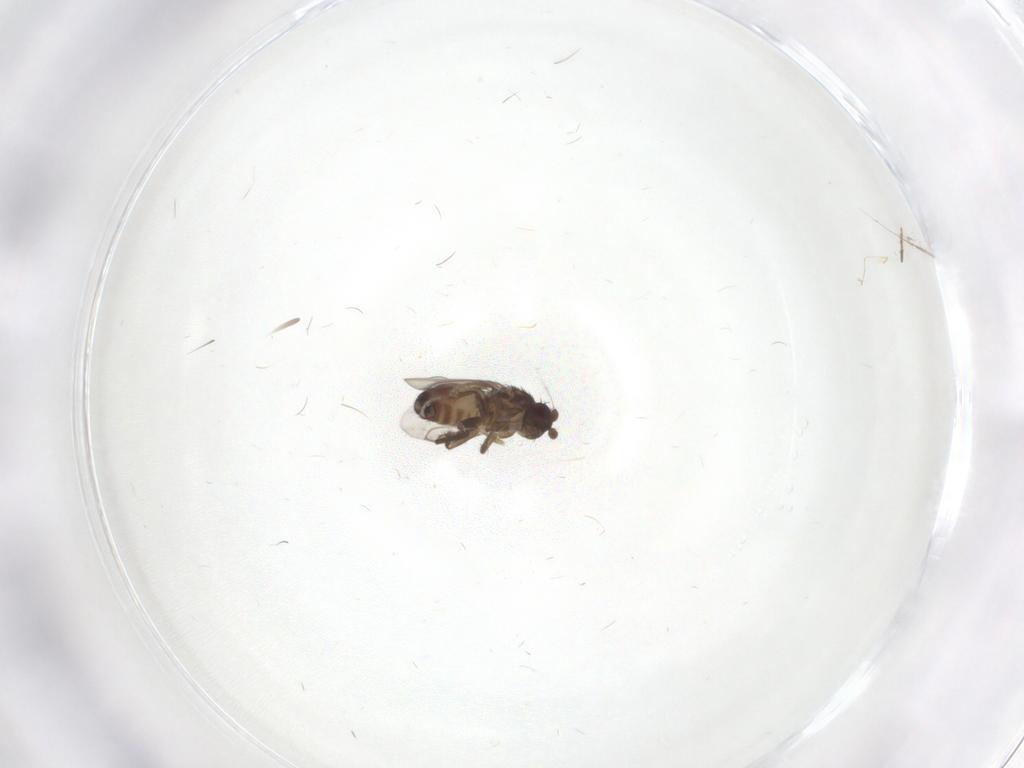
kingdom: Animalia
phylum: Arthropoda
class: Insecta
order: Diptera
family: Sphaeroceridae
